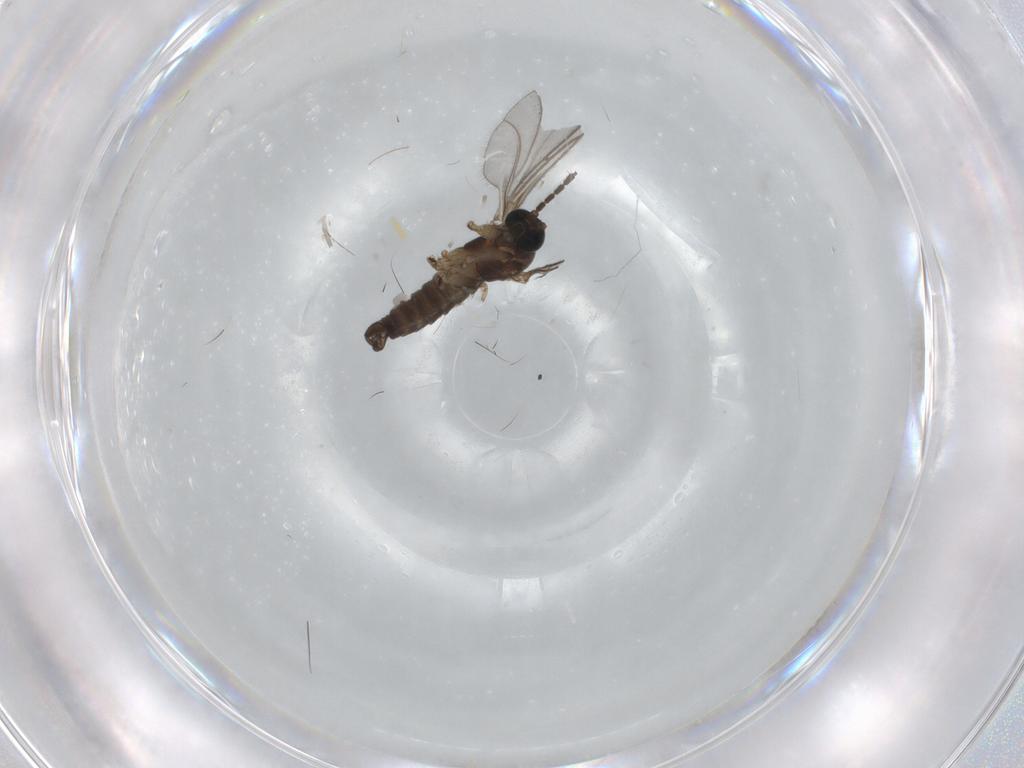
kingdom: Animalia
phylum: Arthropoda
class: Insecta
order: Diptera
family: Sciaridae
